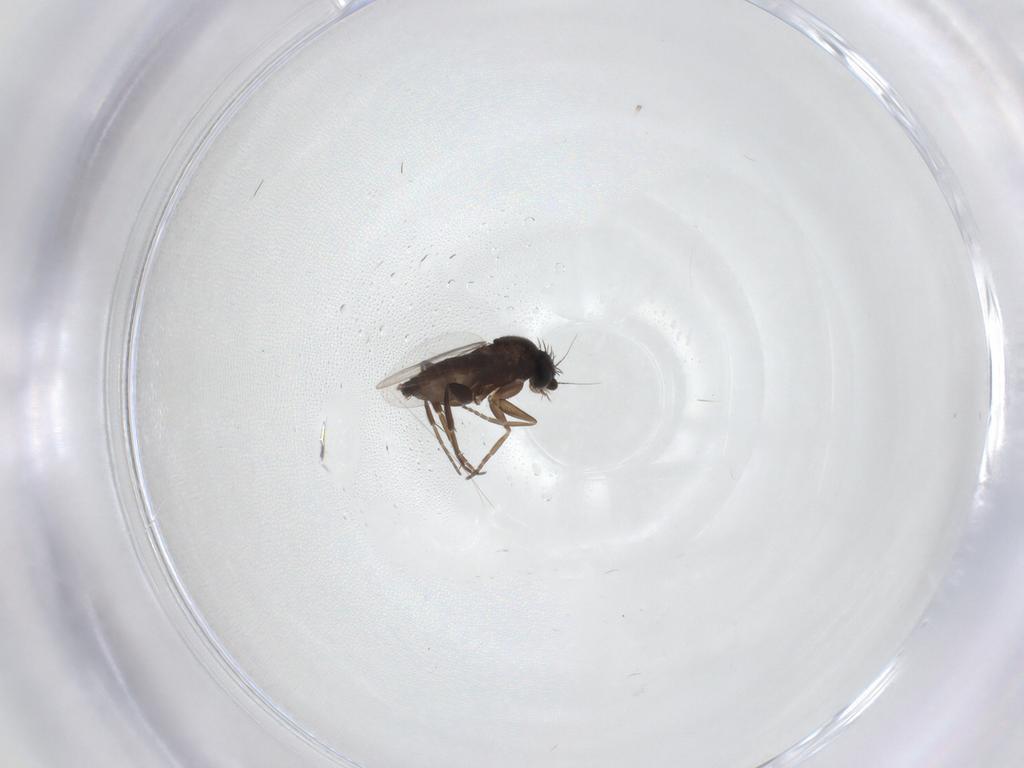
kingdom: Animalia
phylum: Arthropoda
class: Insecta
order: Diptera
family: Phoridae
